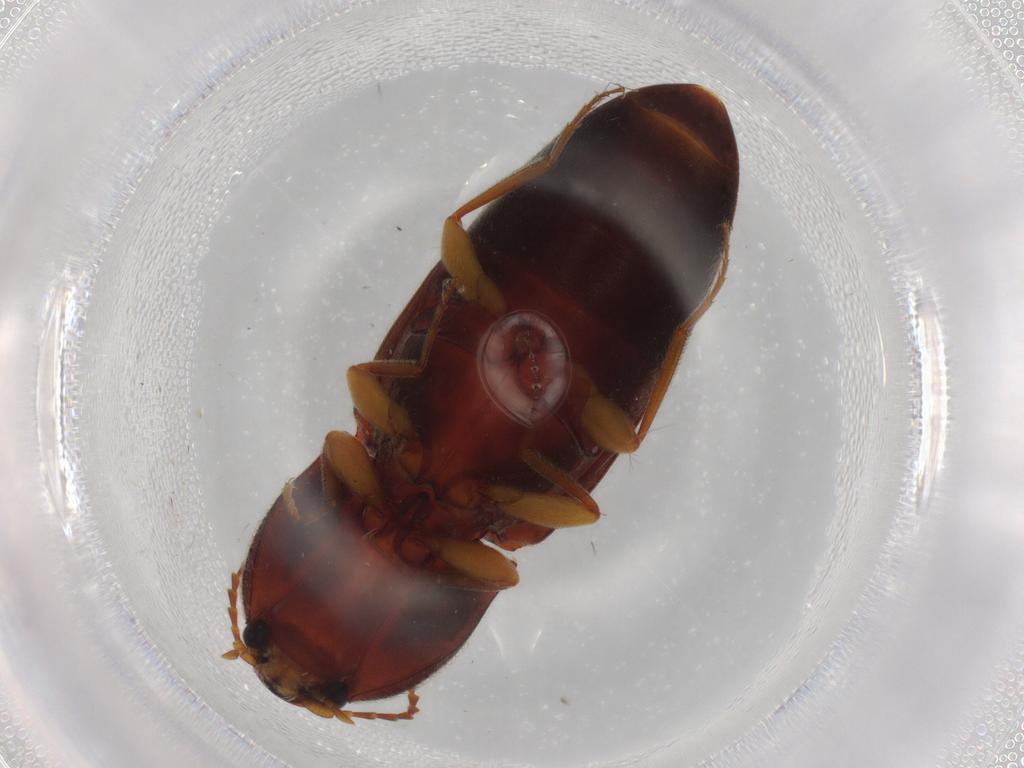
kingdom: Animalia
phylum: Arthropoda
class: Insecta
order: Coleoptera
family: Elateridae
